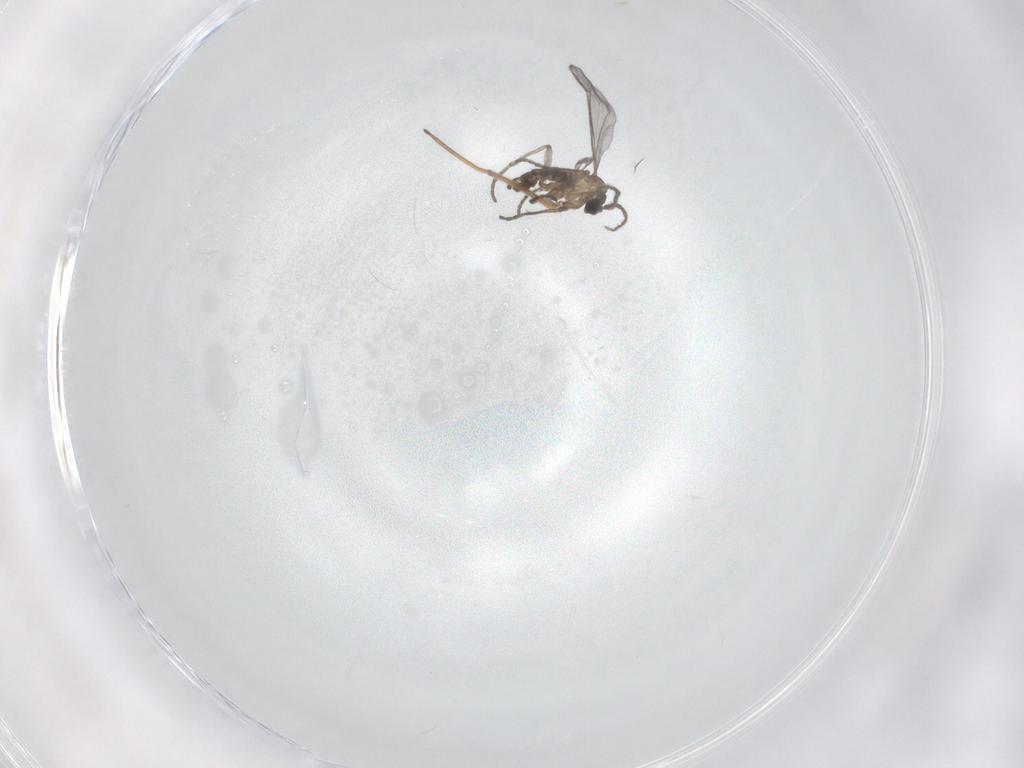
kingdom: Animalia
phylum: Arthropoda
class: Insecta
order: Diptera
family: Sciaridae
